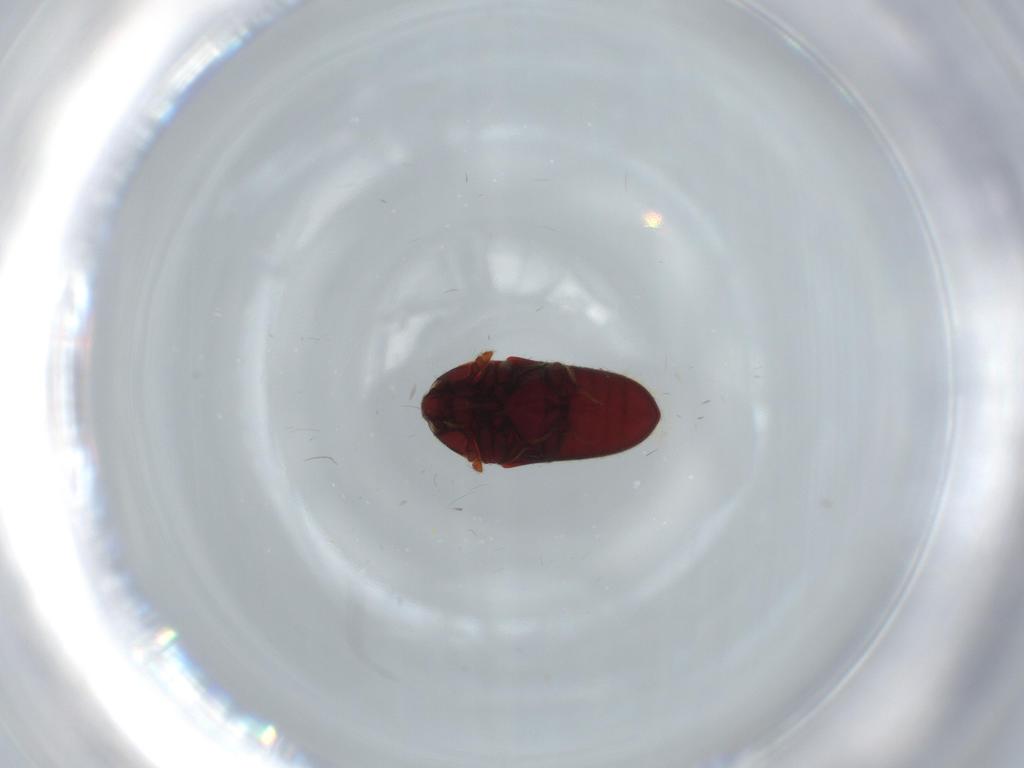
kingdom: Animalia
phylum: Arthropoda
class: Insecta
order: Coleoptera
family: Throscidae
